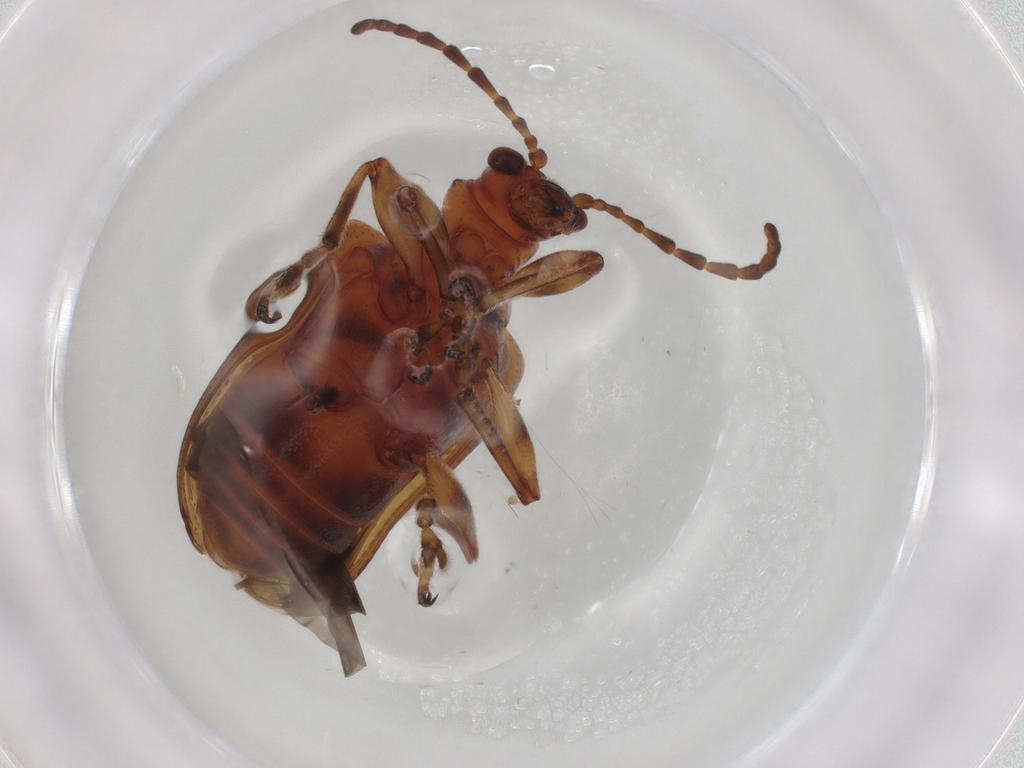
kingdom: Animalia
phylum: Arthropoda
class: Insecta
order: Coleoptera
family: Chrysomelidae
